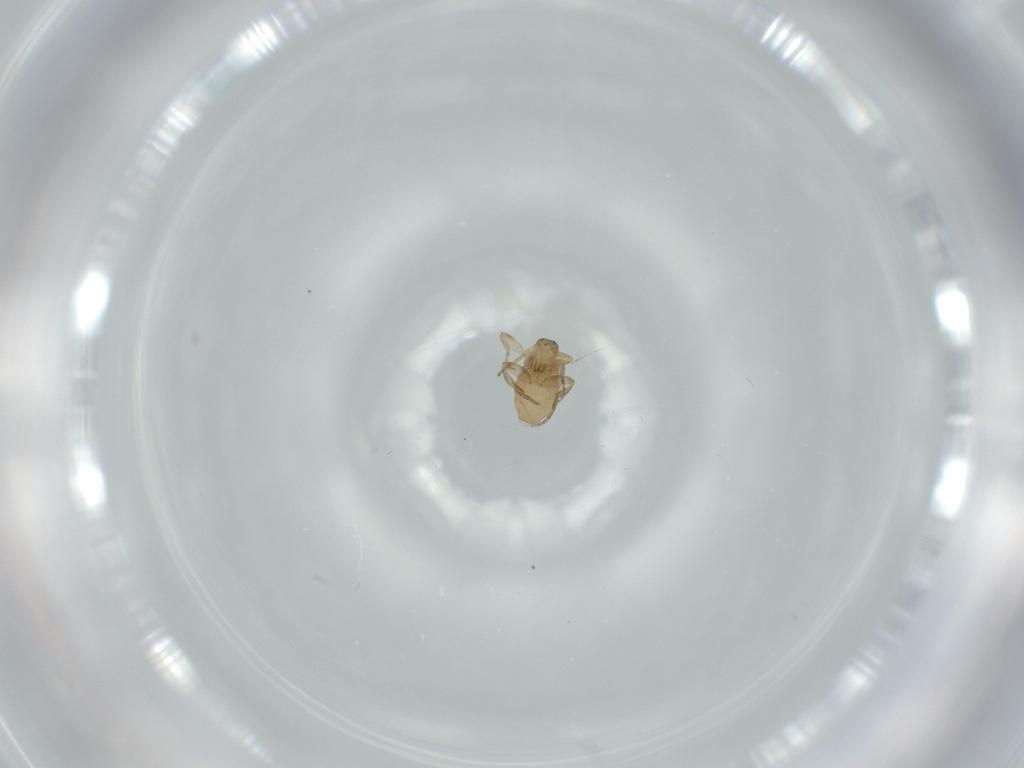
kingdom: Animalia
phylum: Arthropoda
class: Insecta
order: Diptera
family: Phoridae
